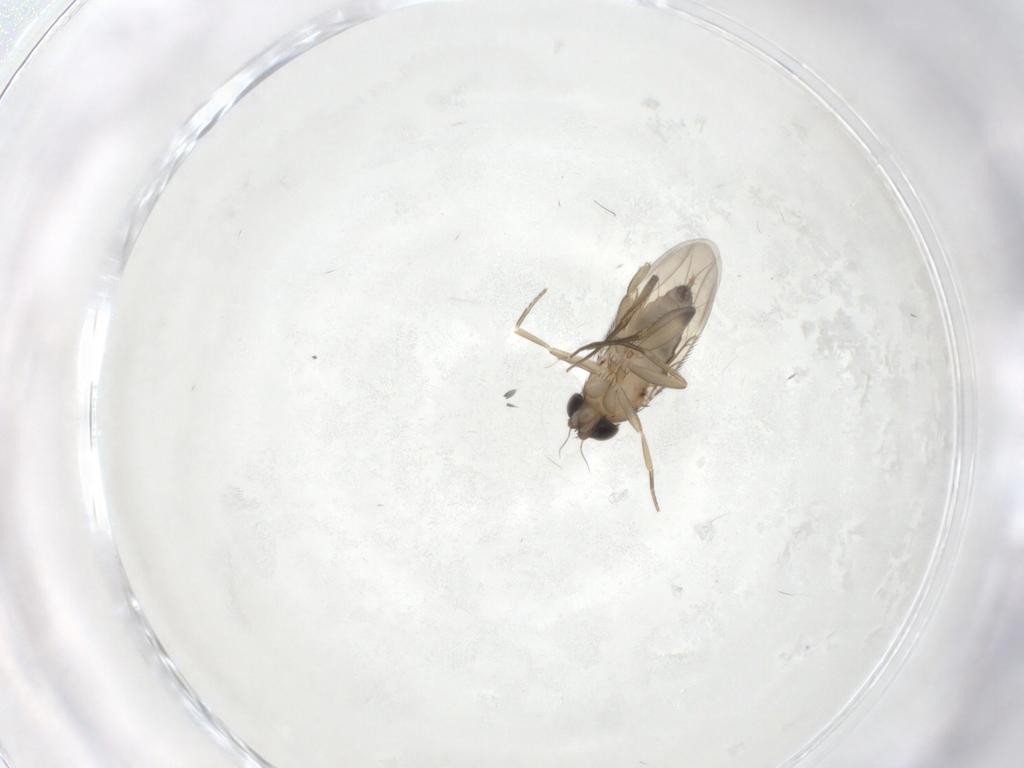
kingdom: Animalia
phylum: Arthropoda
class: Insecta
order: Diptera
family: Phoridae
